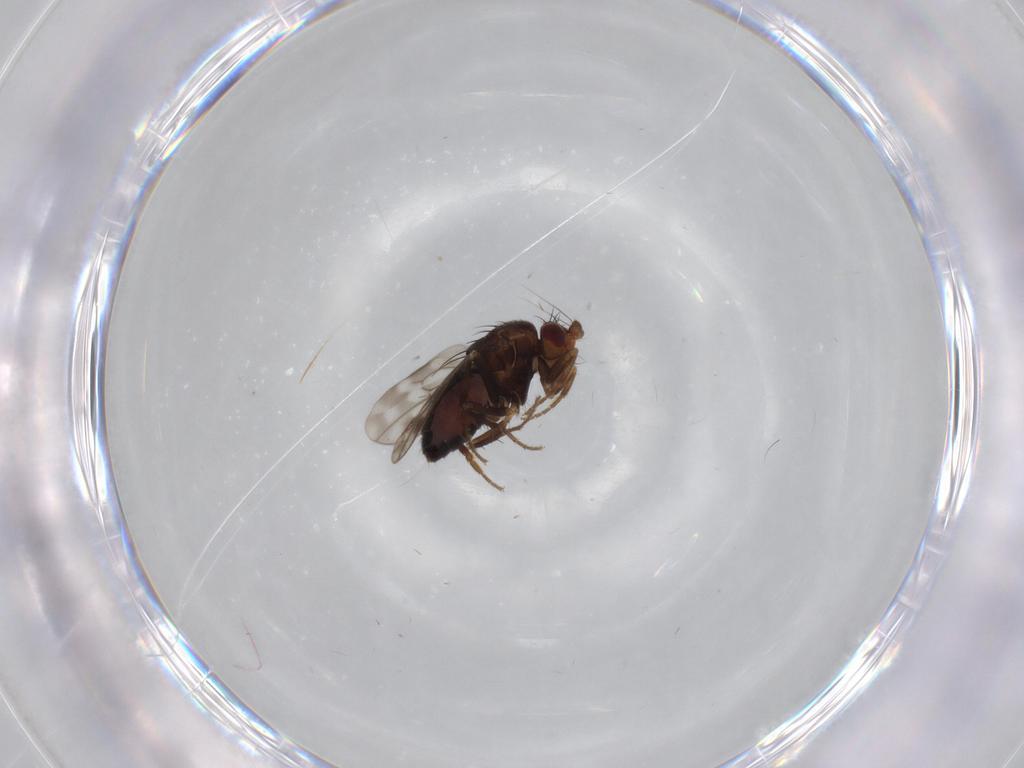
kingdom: Animalia
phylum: Arthropoda
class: Insecta
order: Diptera
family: Sphaeroceridae
